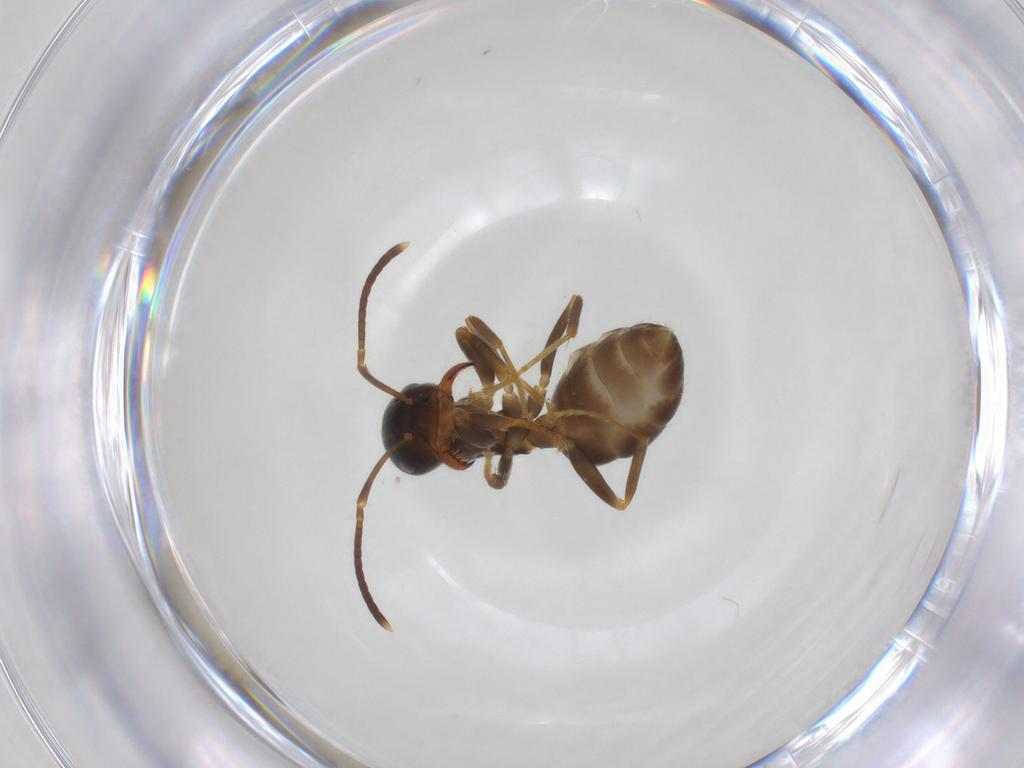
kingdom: Animalia
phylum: Arthropoda
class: Insecta
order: Hymenoptera
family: Formicidae
